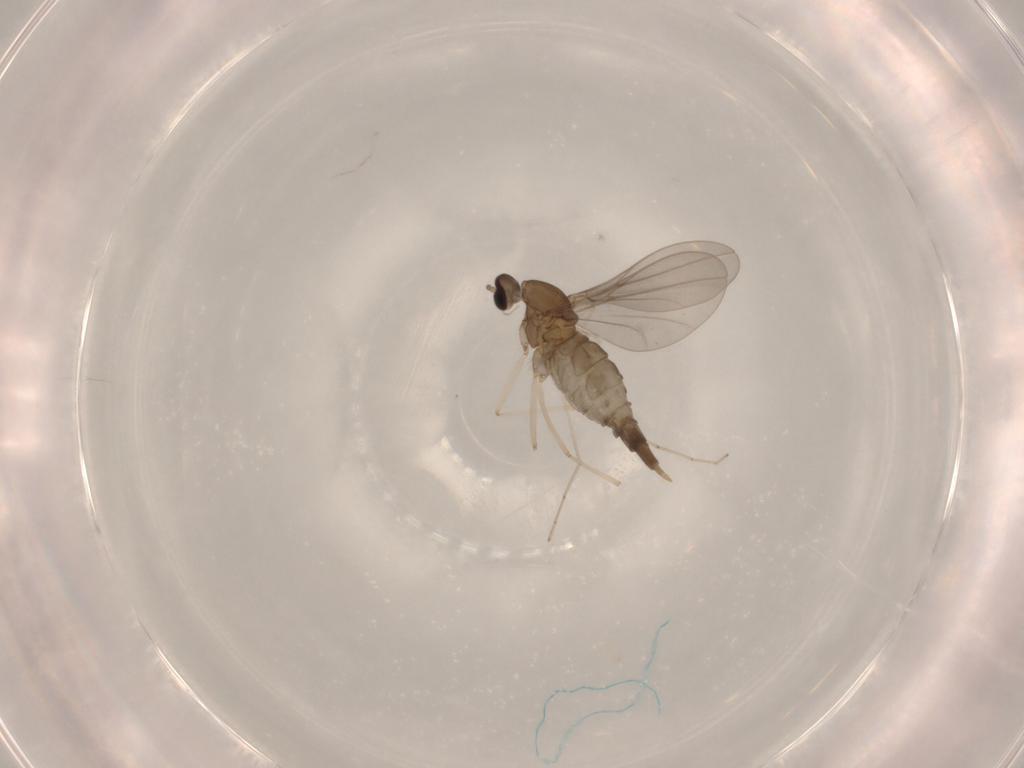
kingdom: Animalia
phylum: Arthropoda
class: Insecta
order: Diptera
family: Cecidomyiidae
